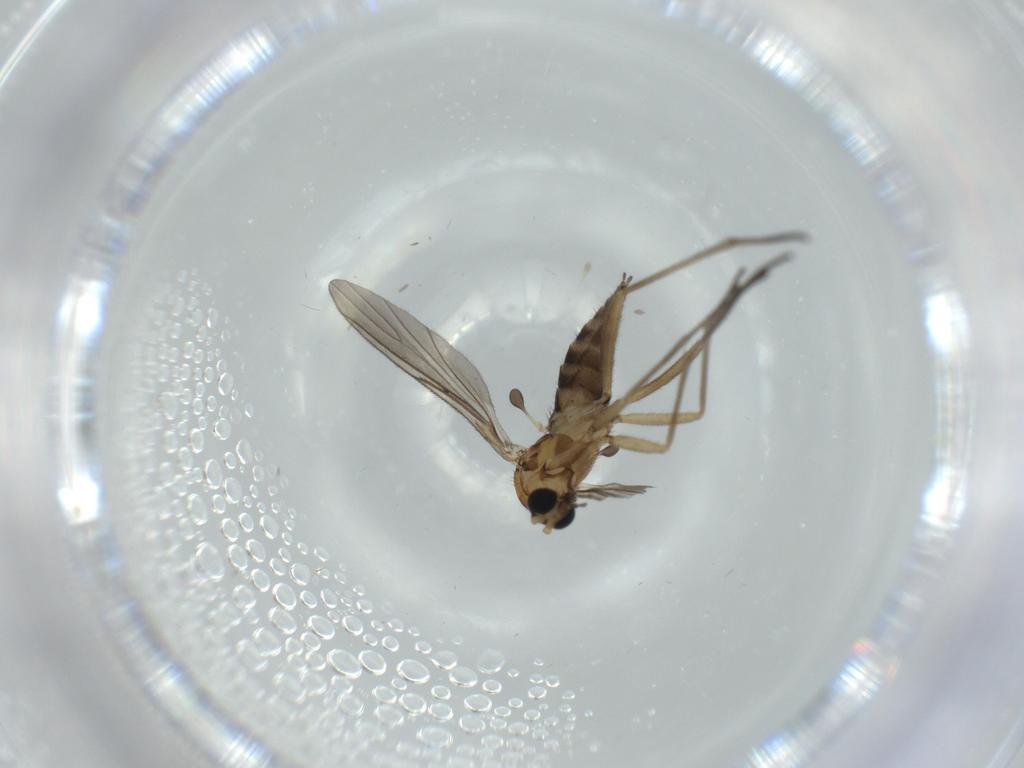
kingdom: Animalia
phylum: Arthropoda
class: Insecta
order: Diptera
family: Sciaridae
